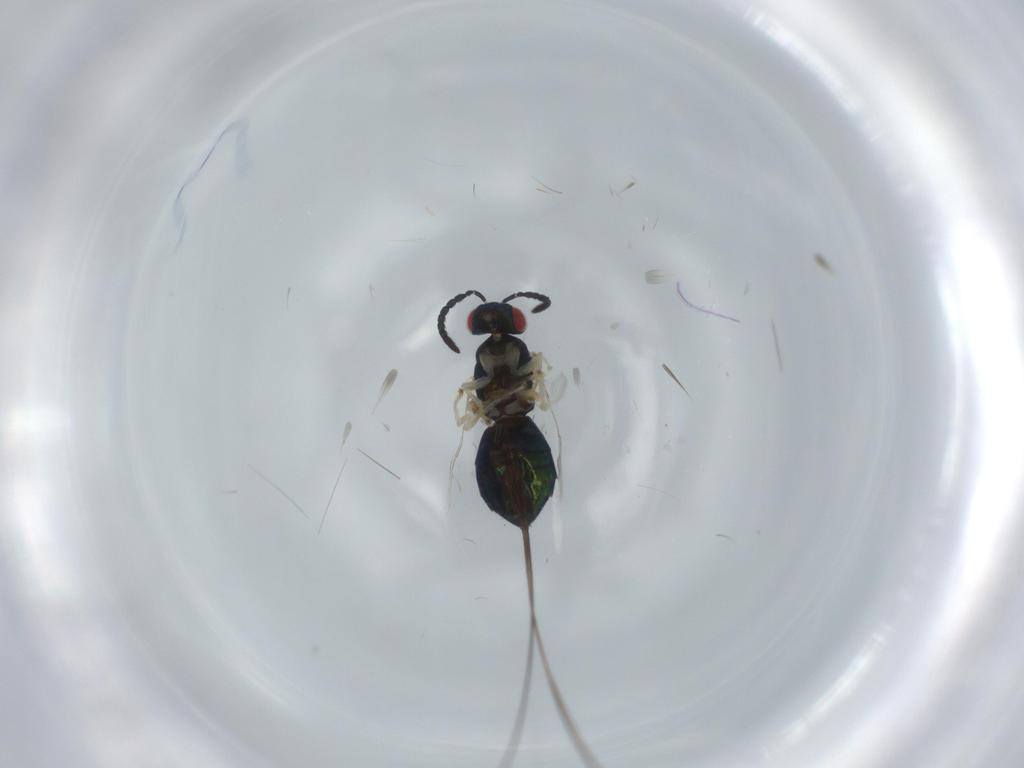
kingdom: Animalia
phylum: Arthropoda
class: Insecta
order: Hymenoptera
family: Agaonidae
